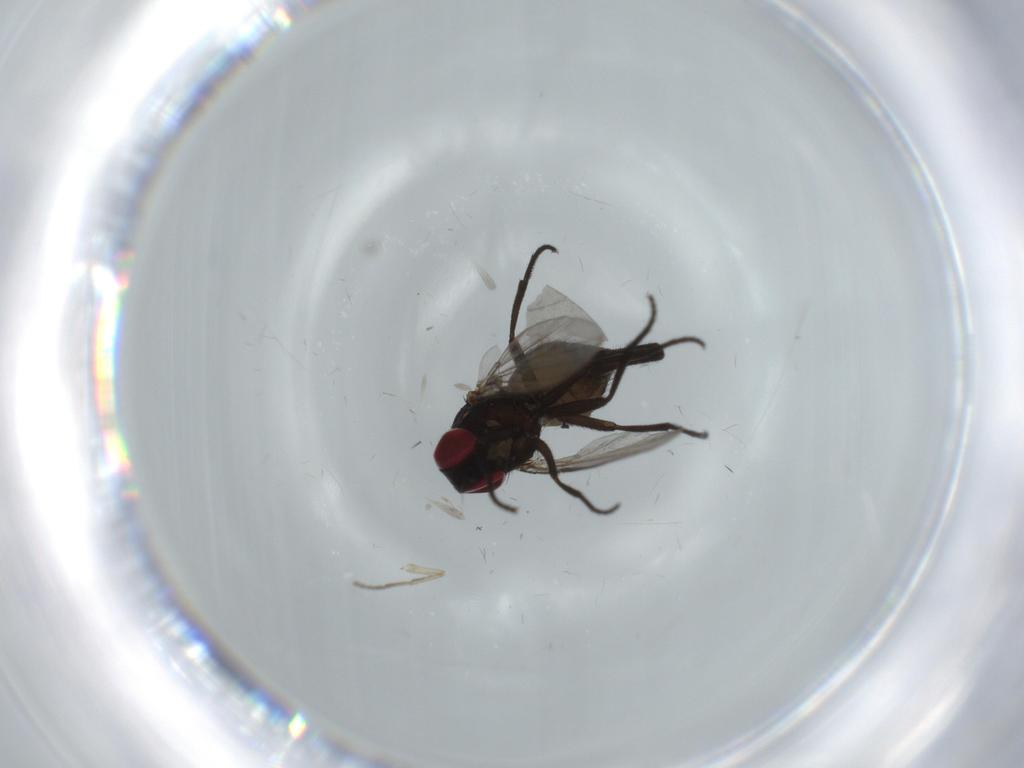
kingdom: Animalia
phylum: Arthropoda
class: Insecta
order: Diptera
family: Agromyzidae
